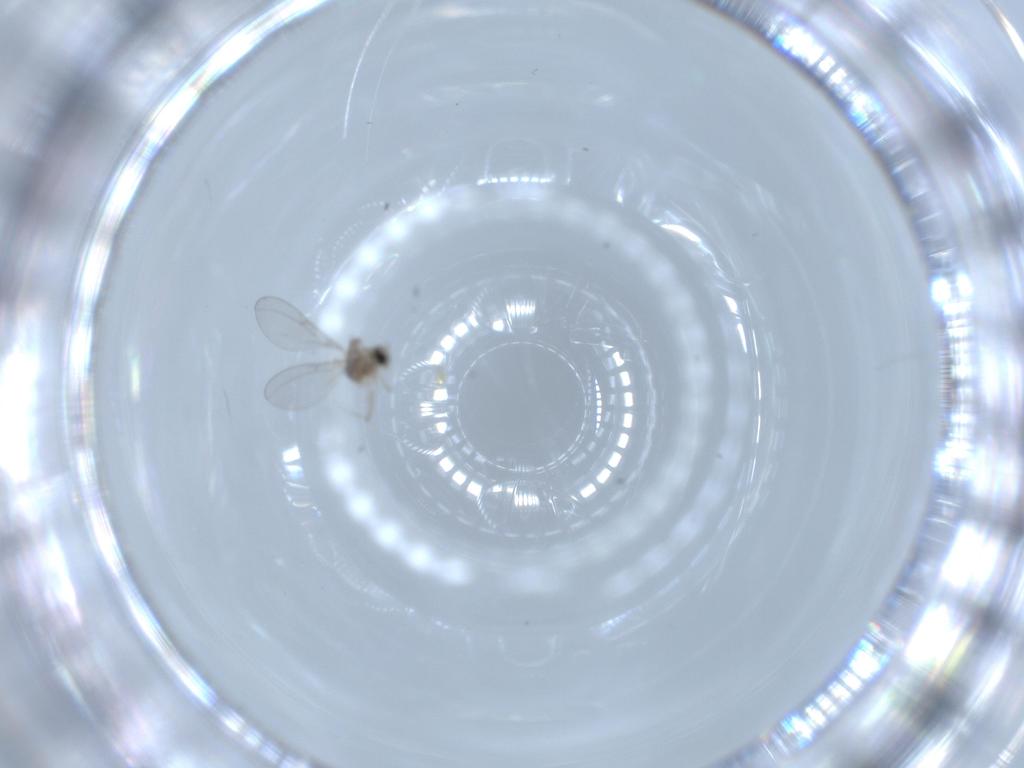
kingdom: Animalia
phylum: Arthropoda
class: Insecta
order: Diptera
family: Cecidomyiidae
